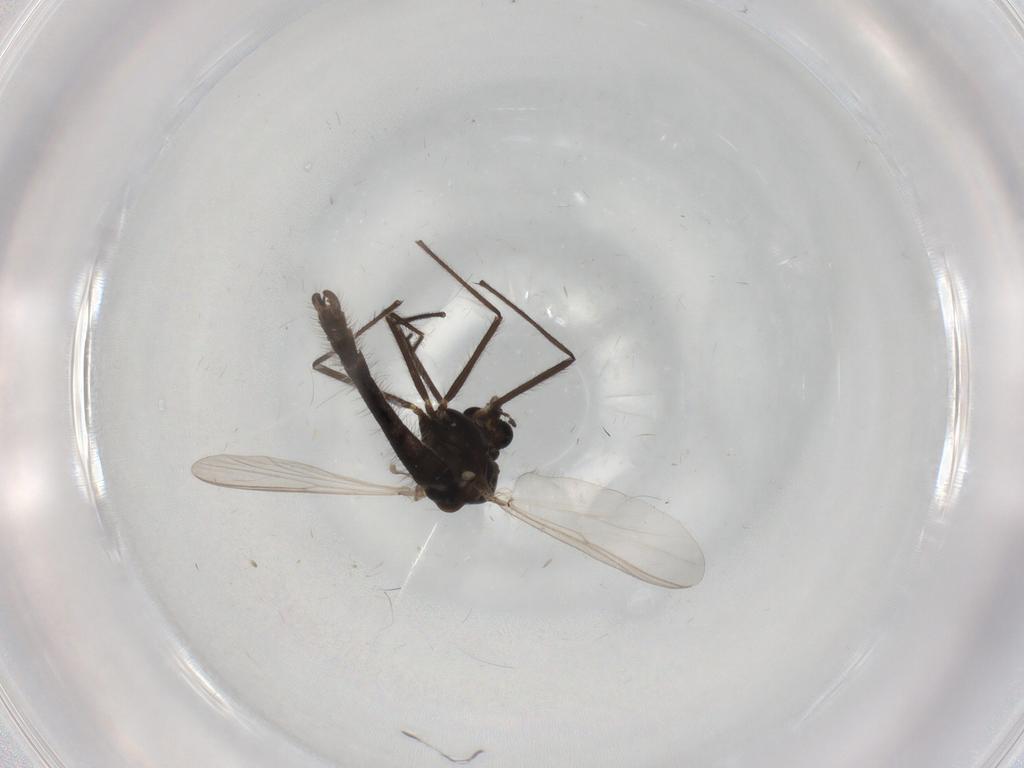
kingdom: Animalia
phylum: Arthropoda
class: Insecta
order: Diptera
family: Chironomidae
